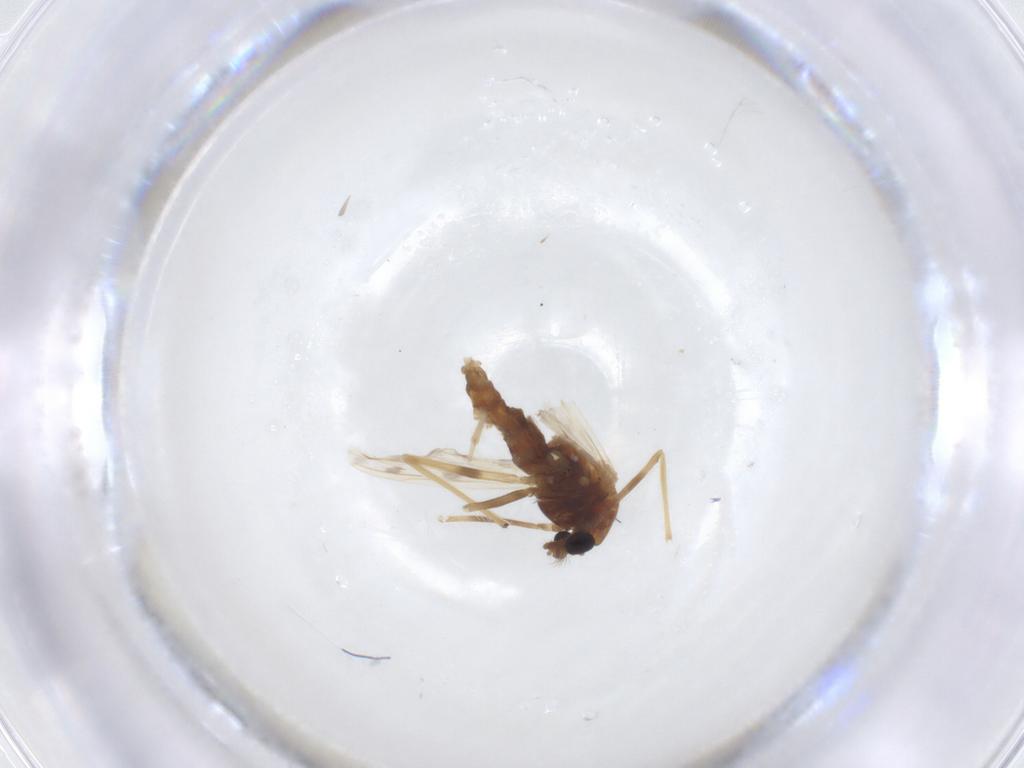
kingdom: Animalia
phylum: Arthropoda
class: Insecta
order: Diptera
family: Chironomidae
